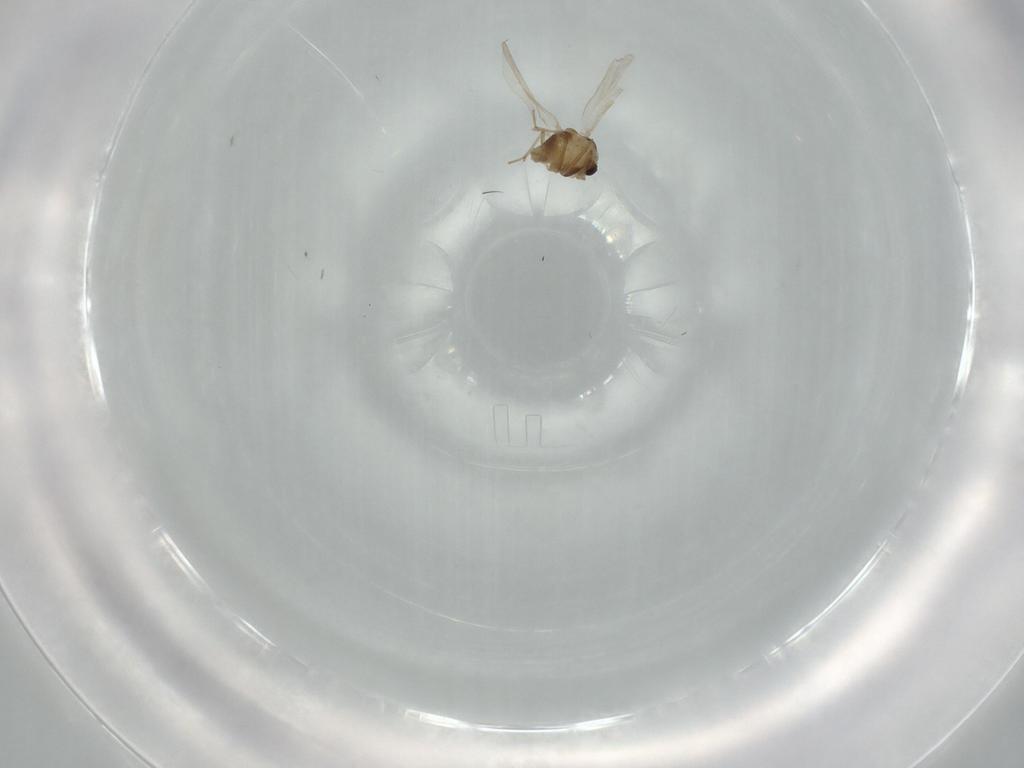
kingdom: Animalia
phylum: Arthropoda
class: Insecta
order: Diptera
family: Chironomidae
